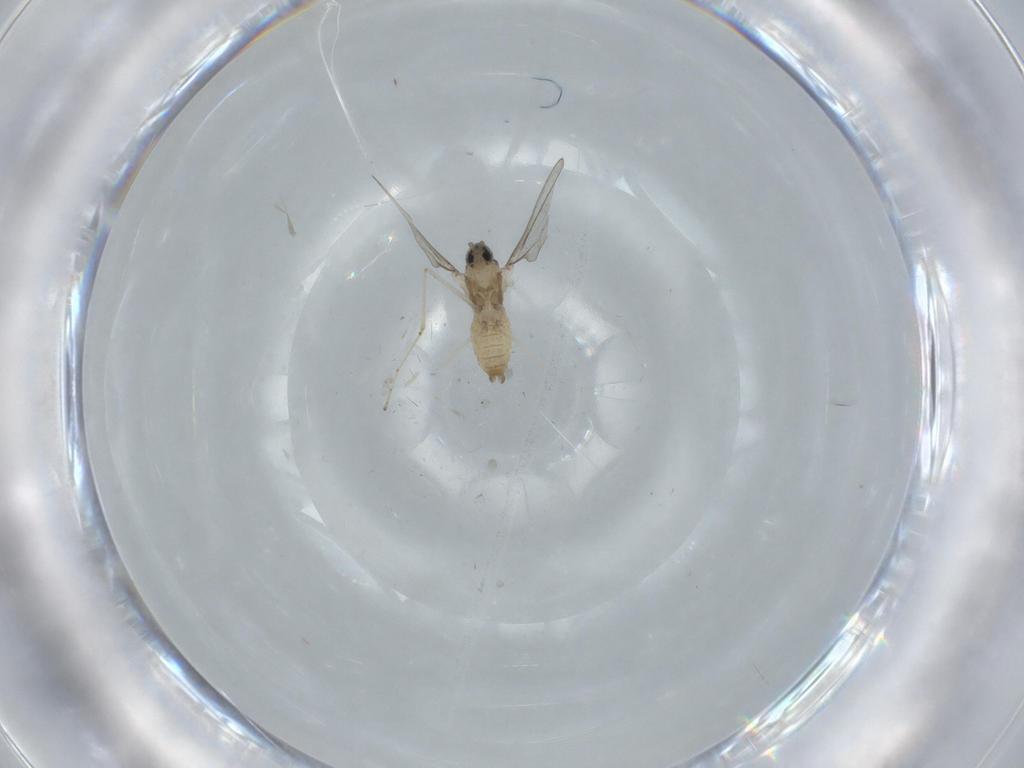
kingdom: Animalia
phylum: Arthropoda
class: Insecta
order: Diptera
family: Cecidomyiidae
